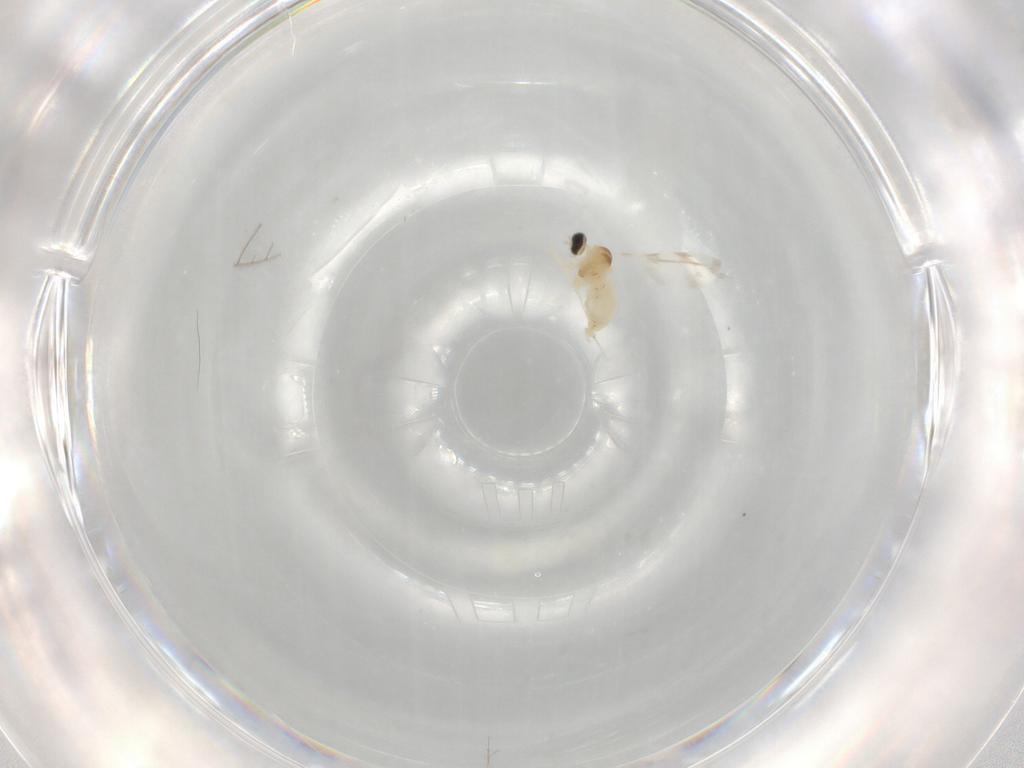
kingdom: Animalia
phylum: Arthropoda
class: Insecta
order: Diptera
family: Cecidomyiidae
